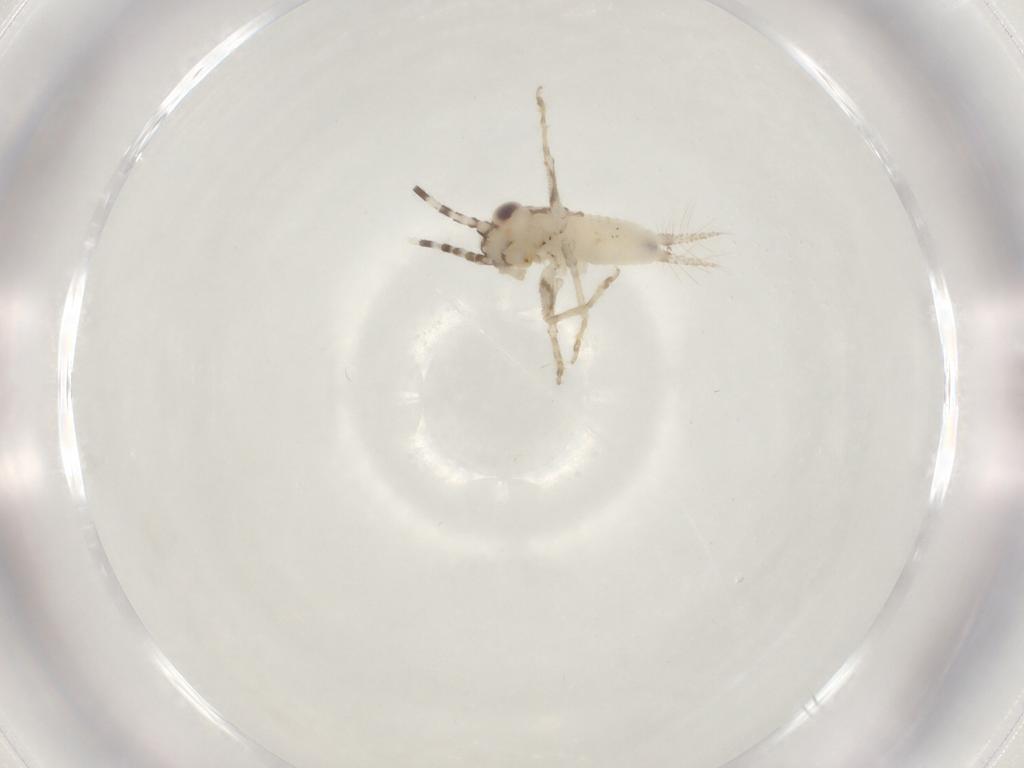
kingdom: Animalia
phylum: Arthropoda
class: Insecta
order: Orthoptera
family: Trigonidiidae
